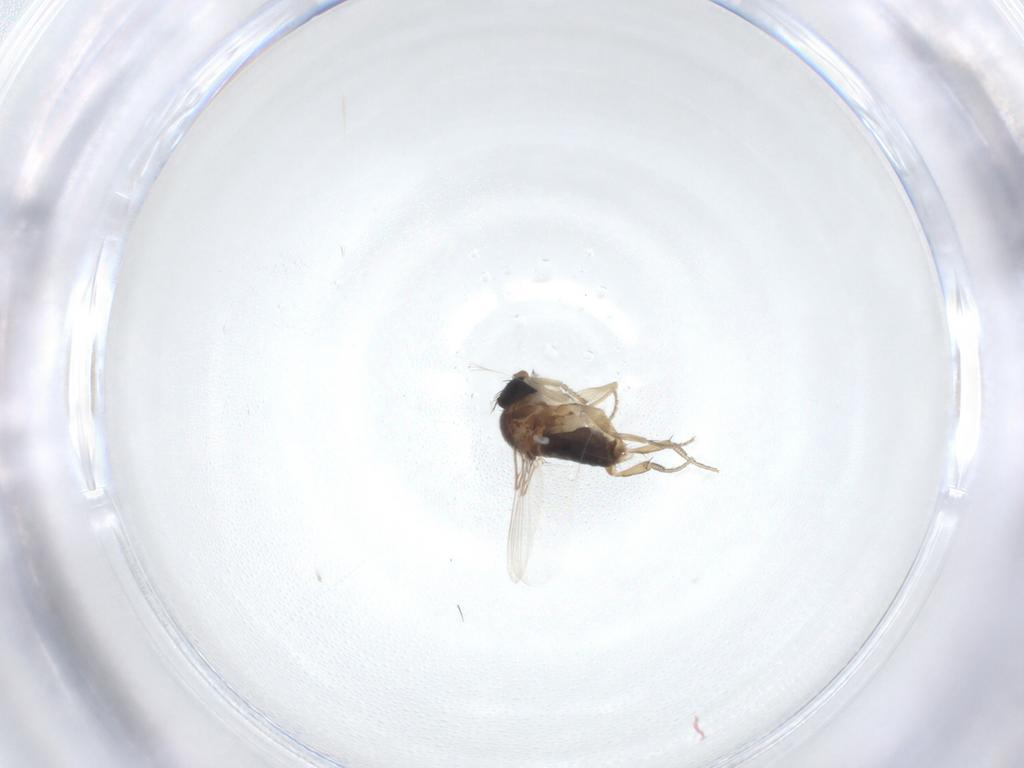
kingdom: Animalia
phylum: Arthropoda
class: Insecta
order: Diptera
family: Phoridae
